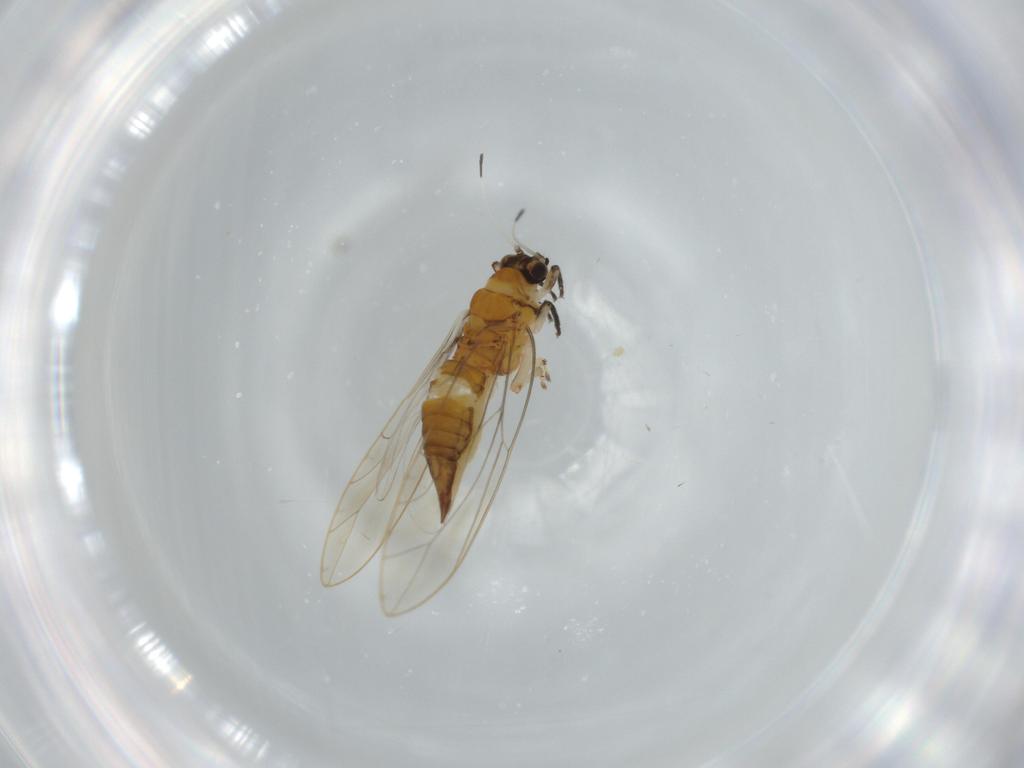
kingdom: Animalia
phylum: Arthropoda
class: Insecta
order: Hemiptera
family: Triozidae
